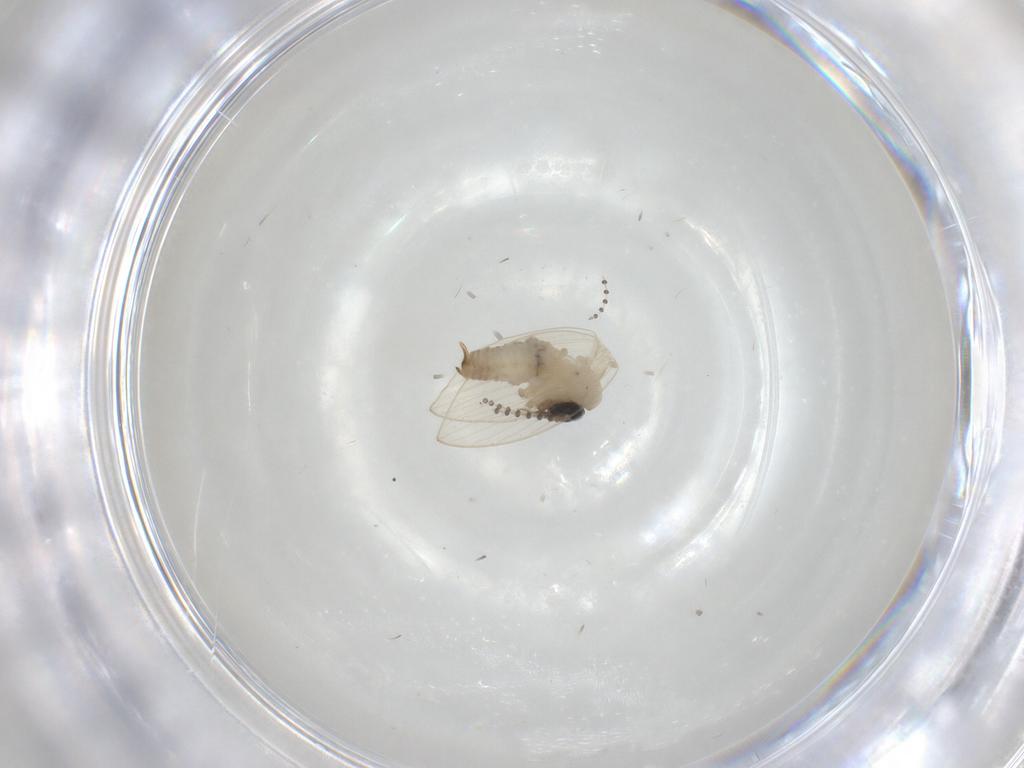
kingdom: Animalia
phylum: Arthropoda
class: Insecta
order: Diptera
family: Psychodidae
